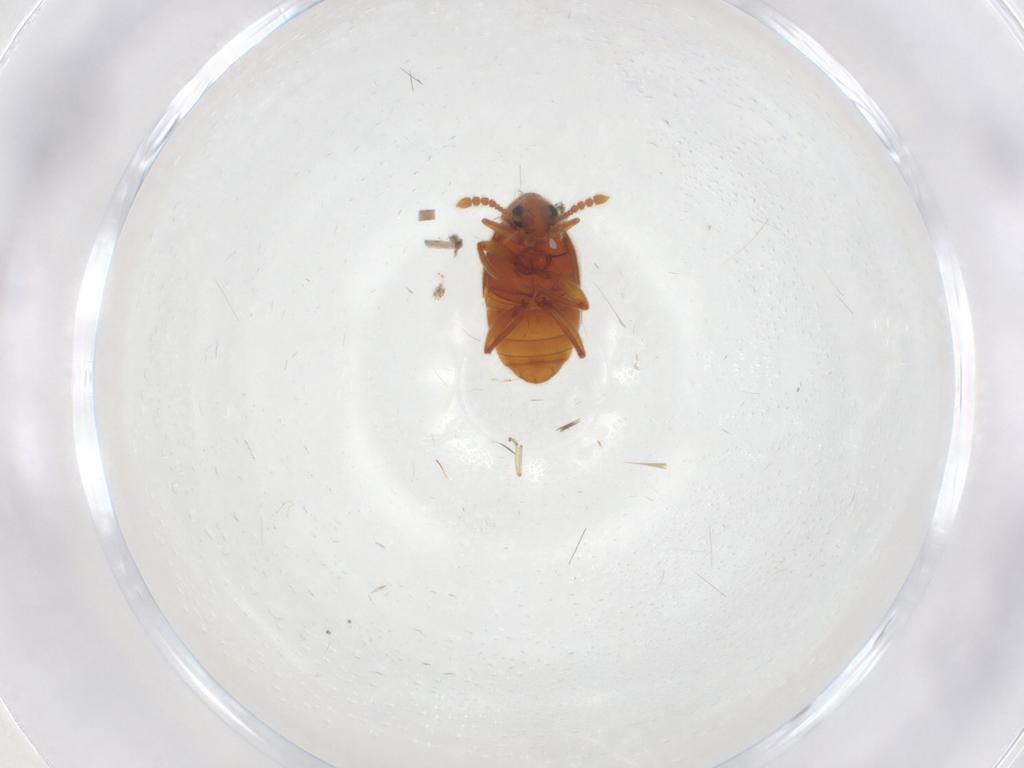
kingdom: Animalia
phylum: Arthropoda
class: Insecta
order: Coleoptera
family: Staphylinidae
